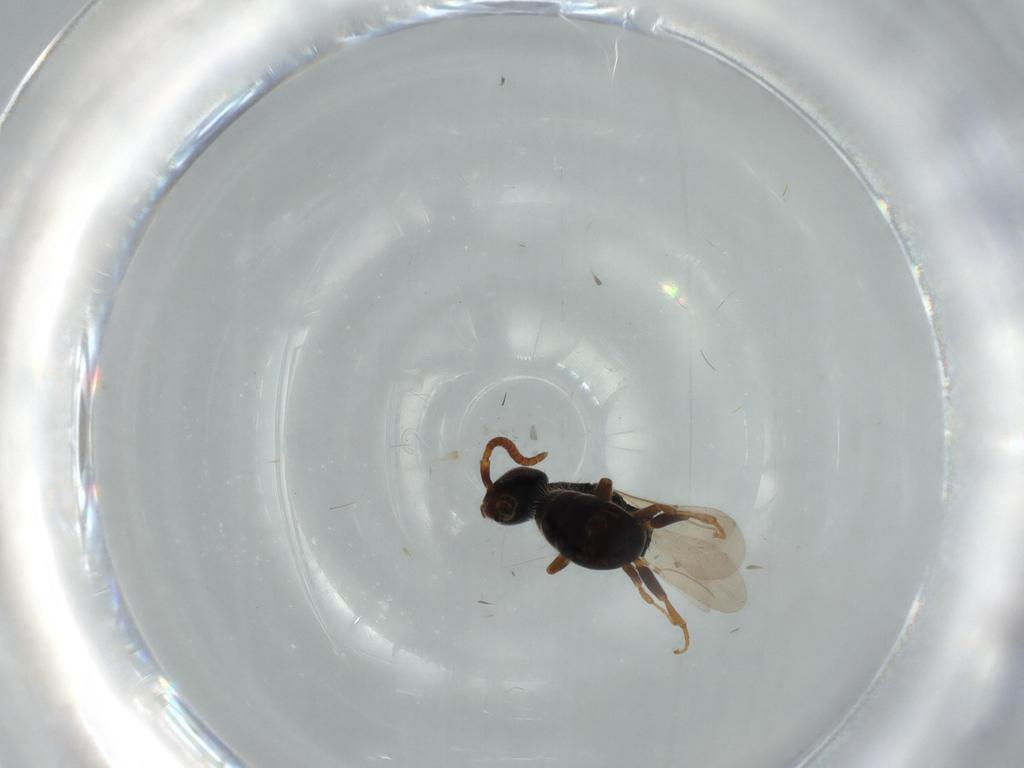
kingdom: Animalia
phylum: Arthropoda
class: Insecta
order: Hymenoptera
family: Bethylidae
